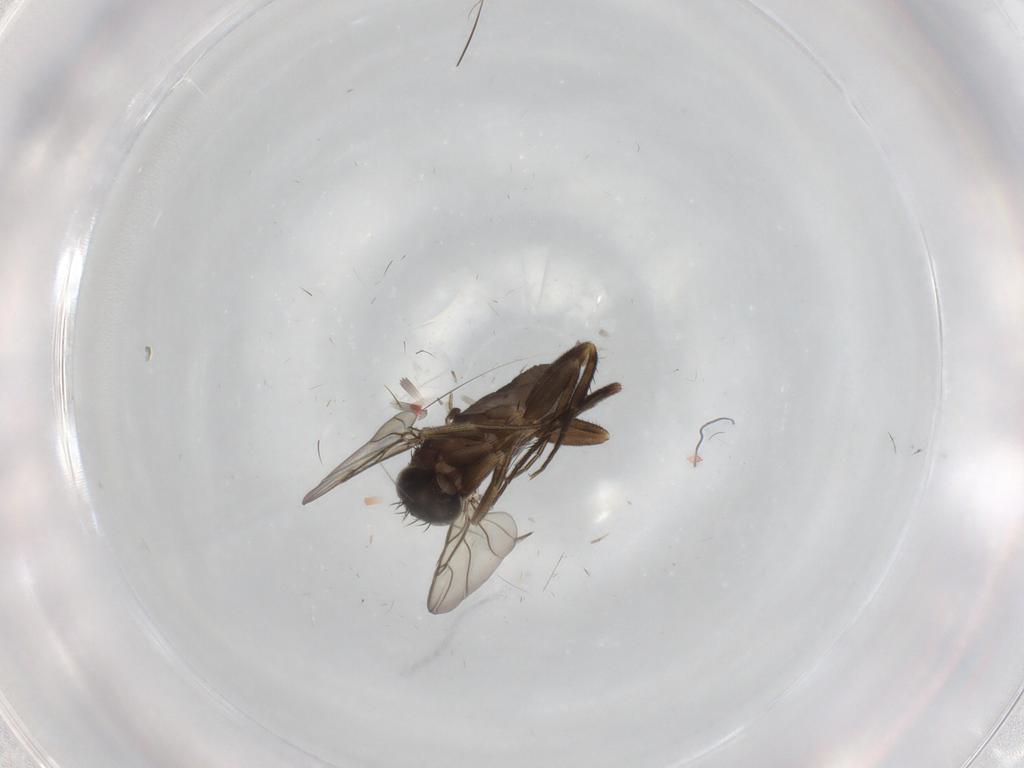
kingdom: Animalia
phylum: Arthropoda
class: Insecta
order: Diptera
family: Phoridae
